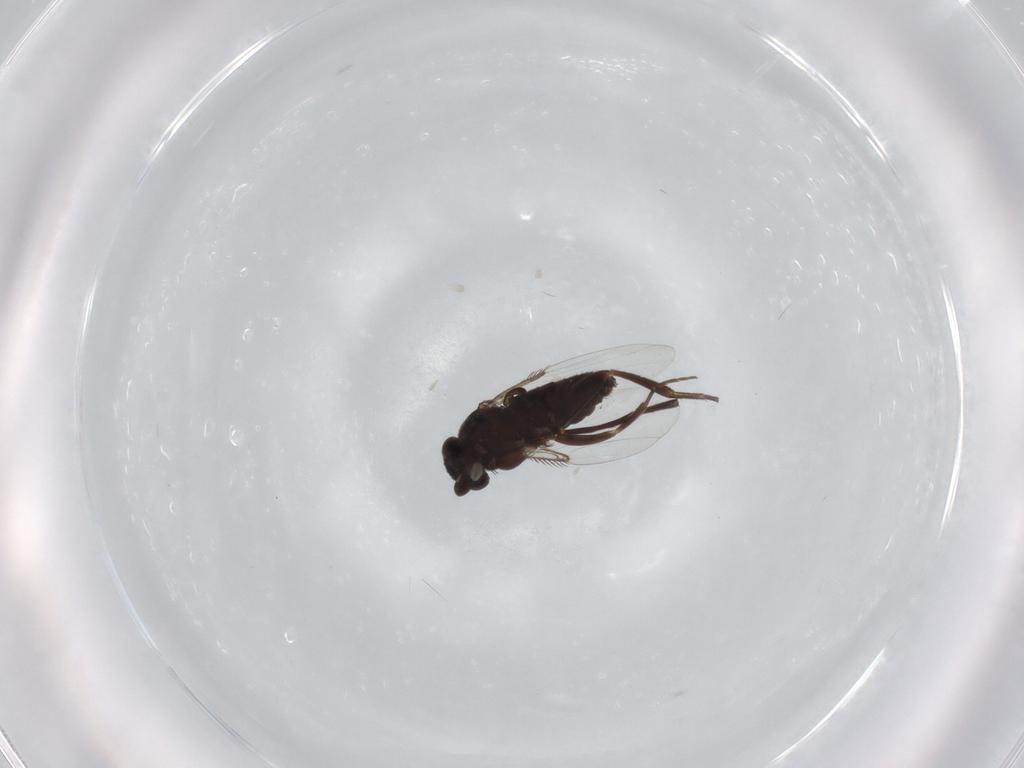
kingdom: Animalia
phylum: Arthropoda
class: Insecta
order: Diptera
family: Phoridae
